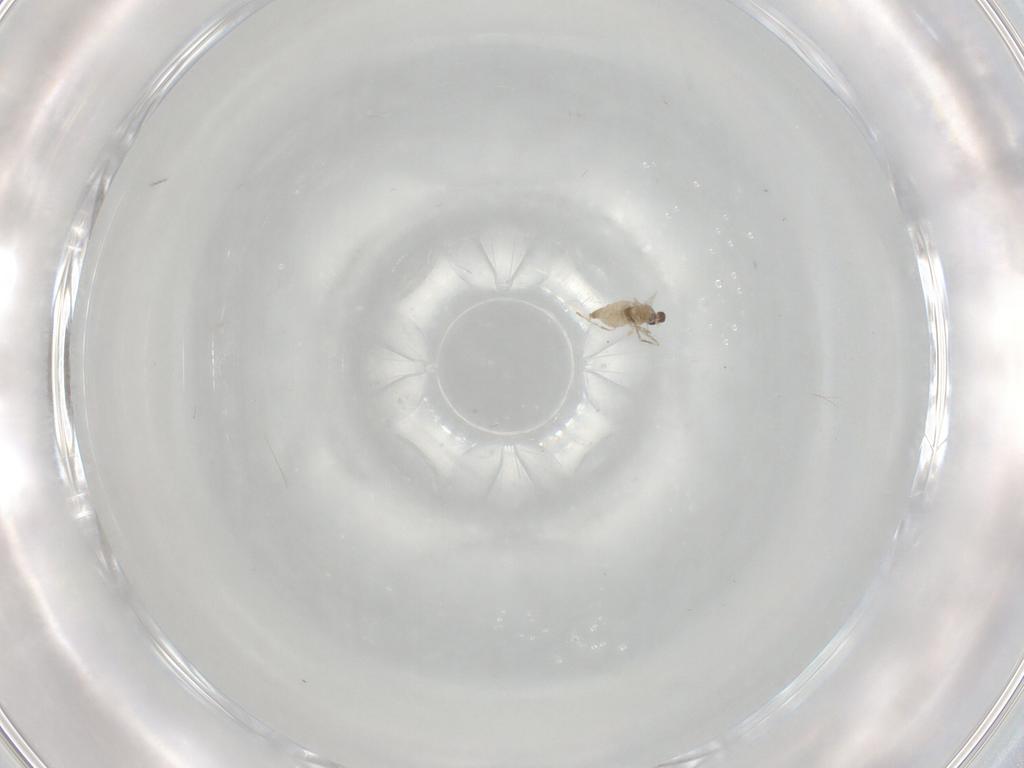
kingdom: Animalia
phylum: Arthropoda
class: Insecta
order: Diptera
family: Cecidomyiidae
